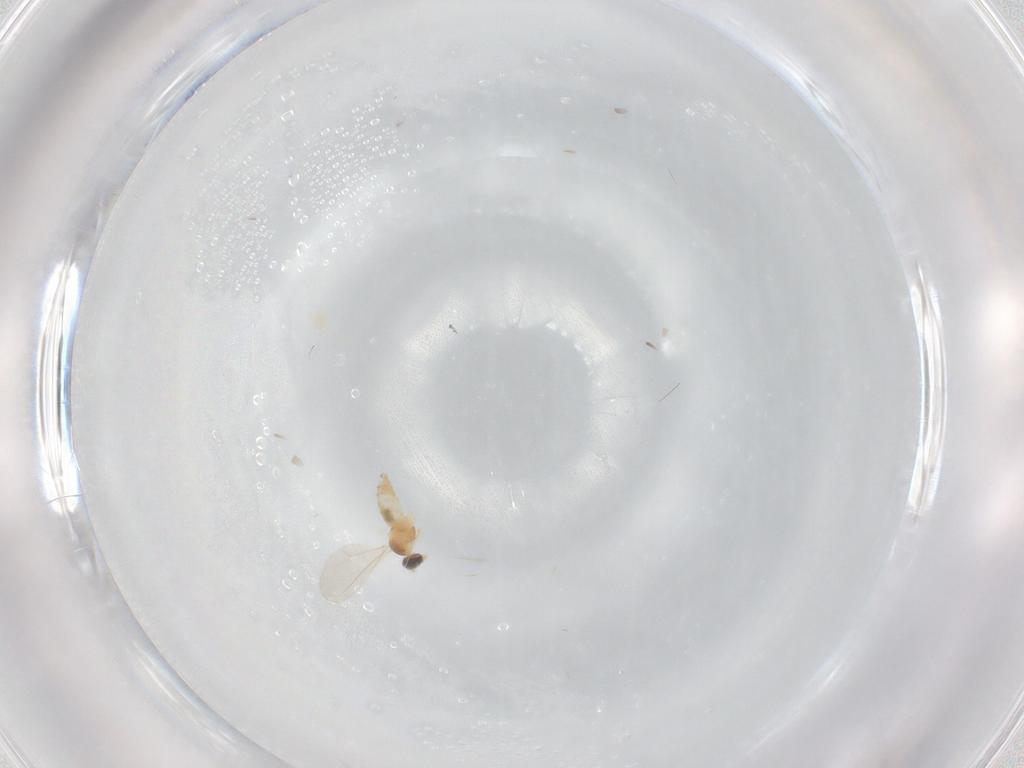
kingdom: Animalia
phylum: Arthropoda
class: Insecta
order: Diptera
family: Cecidomyiidae
